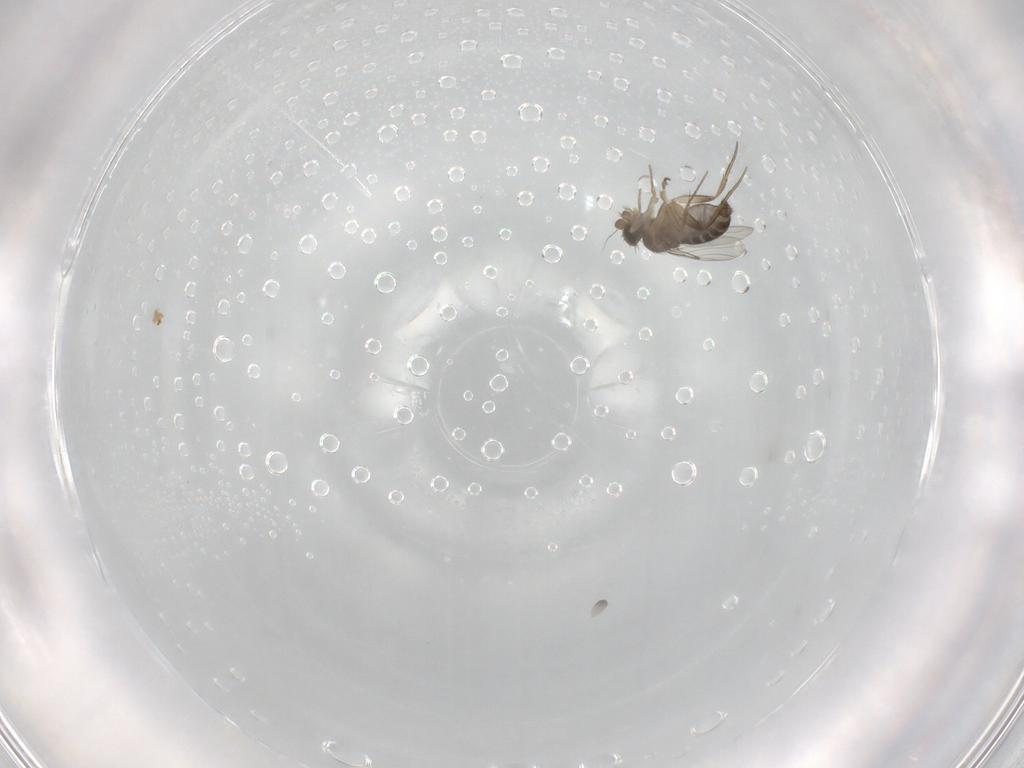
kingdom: Animalia
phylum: Arthropoda
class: Insecta
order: Diptera
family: Phoridae
